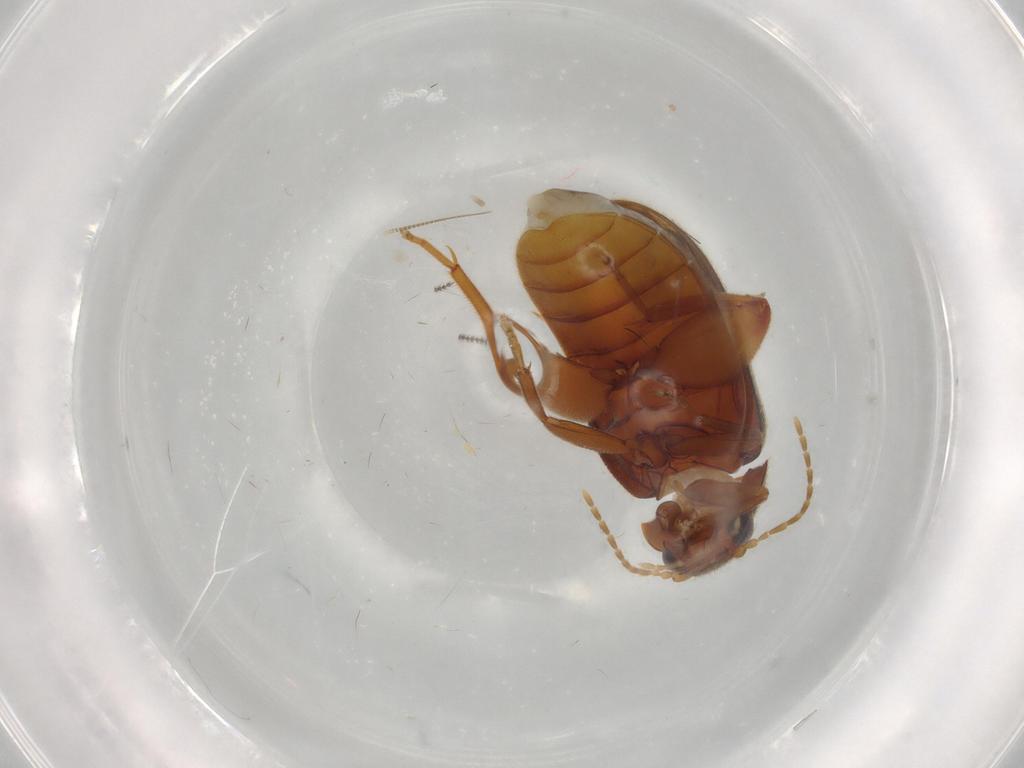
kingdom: Animalia
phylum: Arthropoda
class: Insecta
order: Coleoptera
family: Scirtidae
